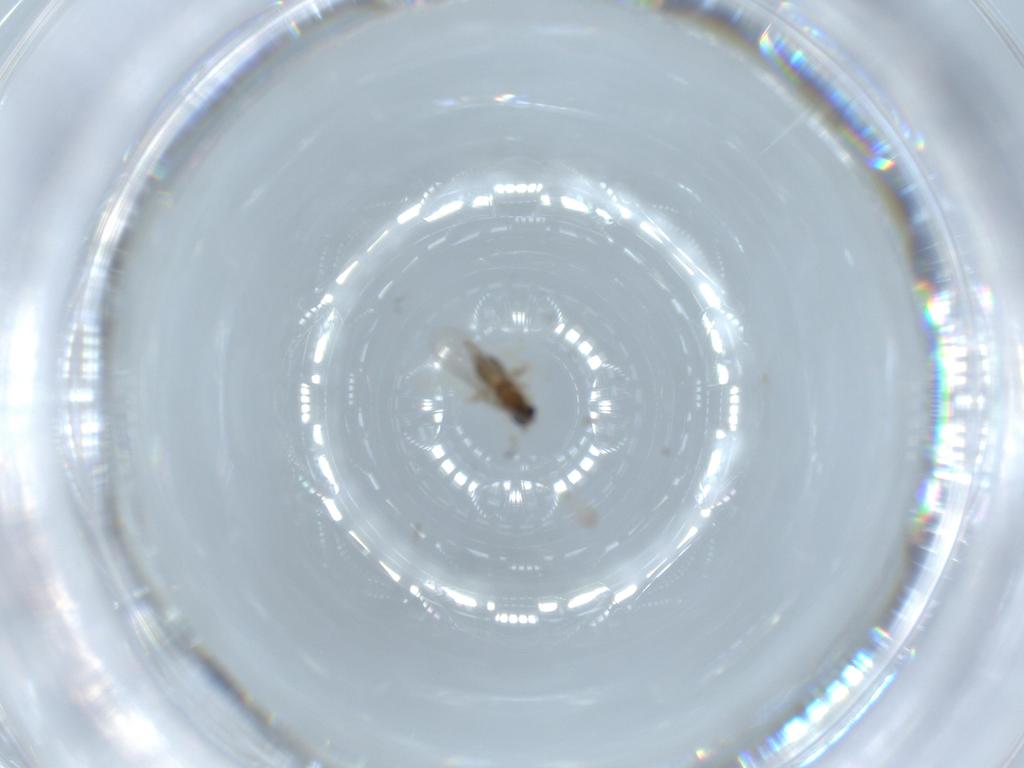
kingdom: Animalia
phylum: Arthropoda
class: Insecta
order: Diptera
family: Cecidomyiidae
